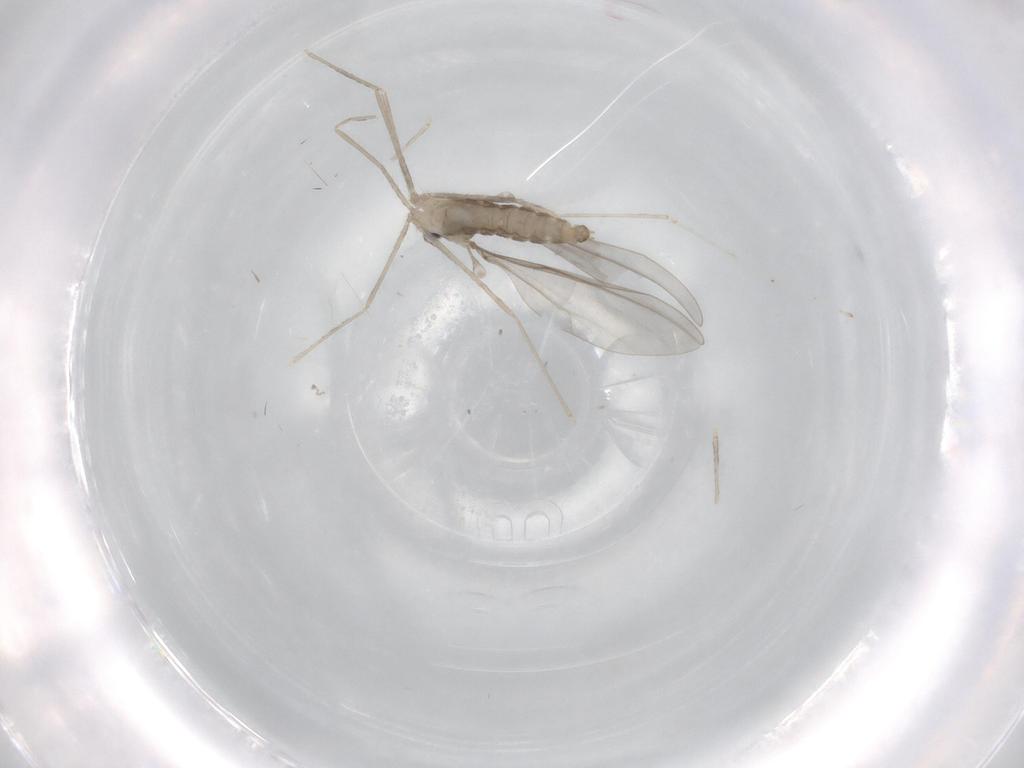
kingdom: Animalia
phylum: Arthropoda
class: Insecta
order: Diptera
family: Cecidomyiidae
